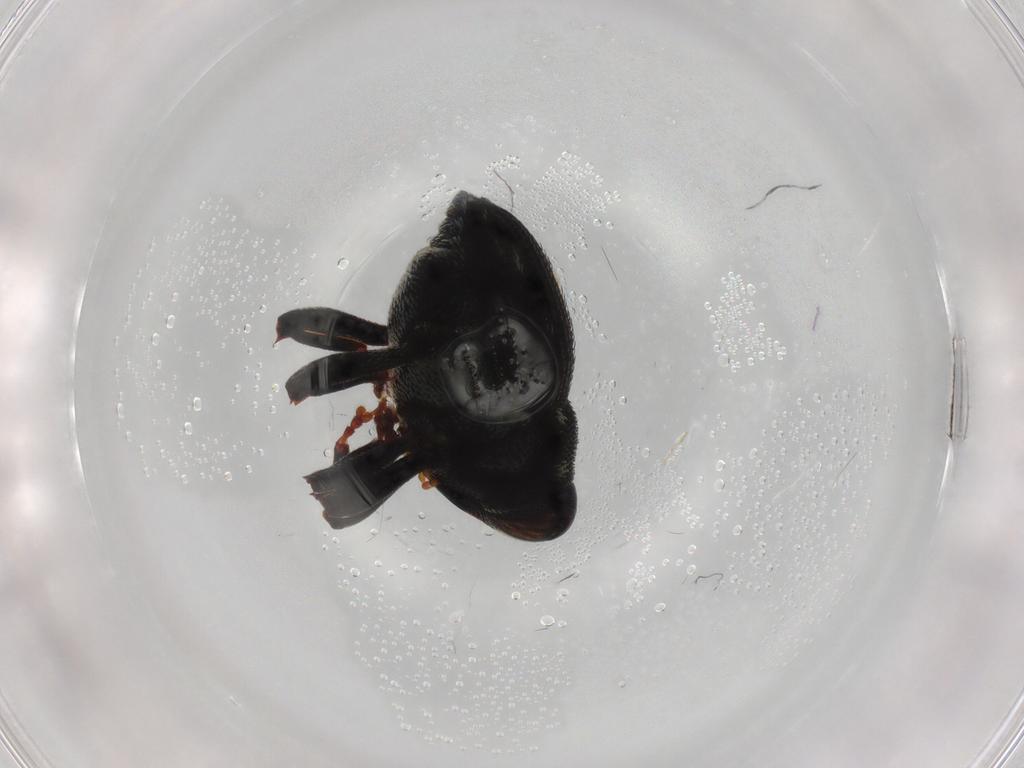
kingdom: Animalia
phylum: Arthropoda
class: Insecta
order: Coleoptera
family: Curculionidae
